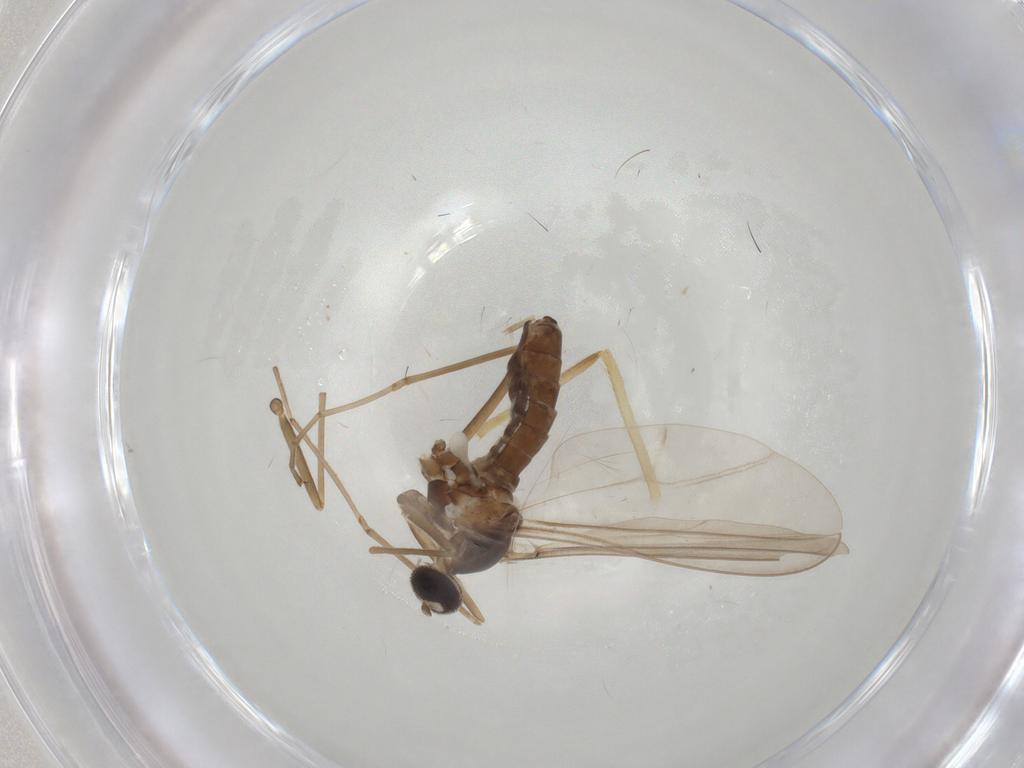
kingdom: Animalia
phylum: Arthropoda
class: Insecta
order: Diptera
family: Chironomidae
